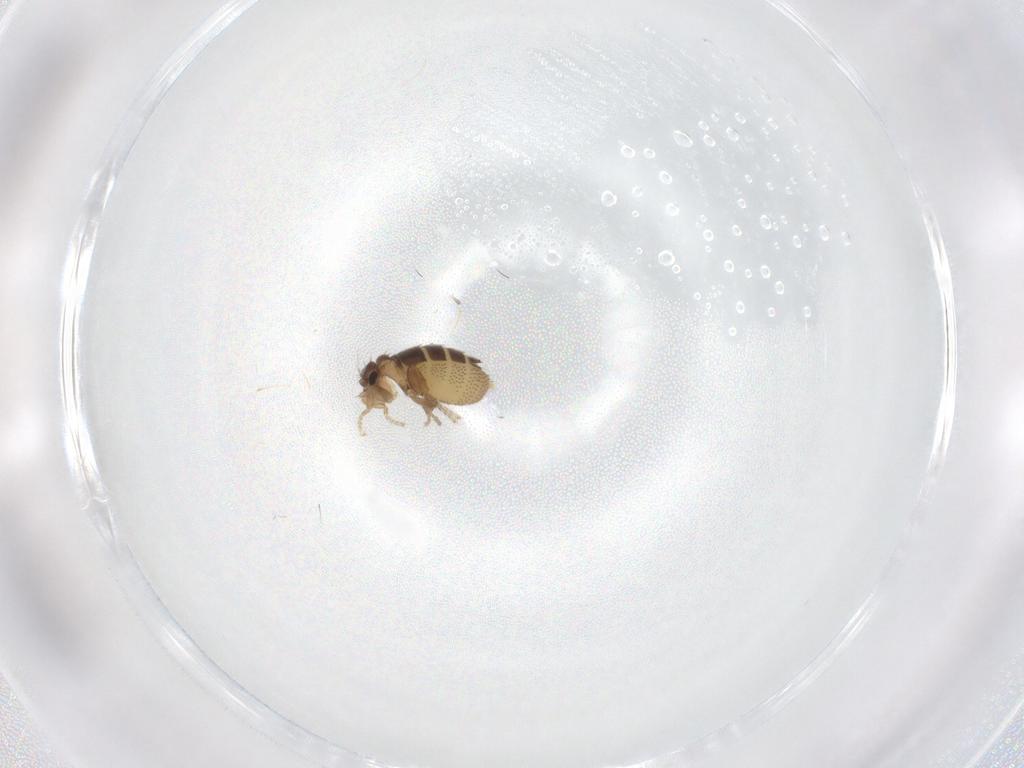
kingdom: Animalia
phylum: Arthropoda
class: Insecta
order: Diptera
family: Phoridae
